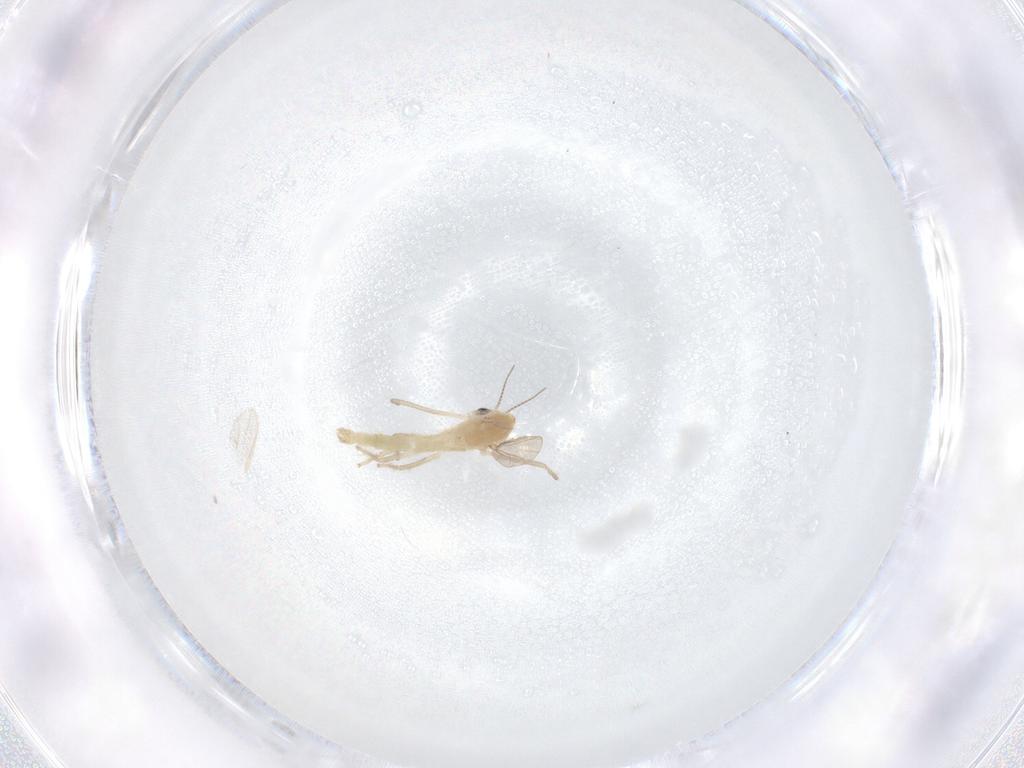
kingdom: Animalia
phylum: Arthropoda
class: Insecta
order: Diptera
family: Chironomidae
